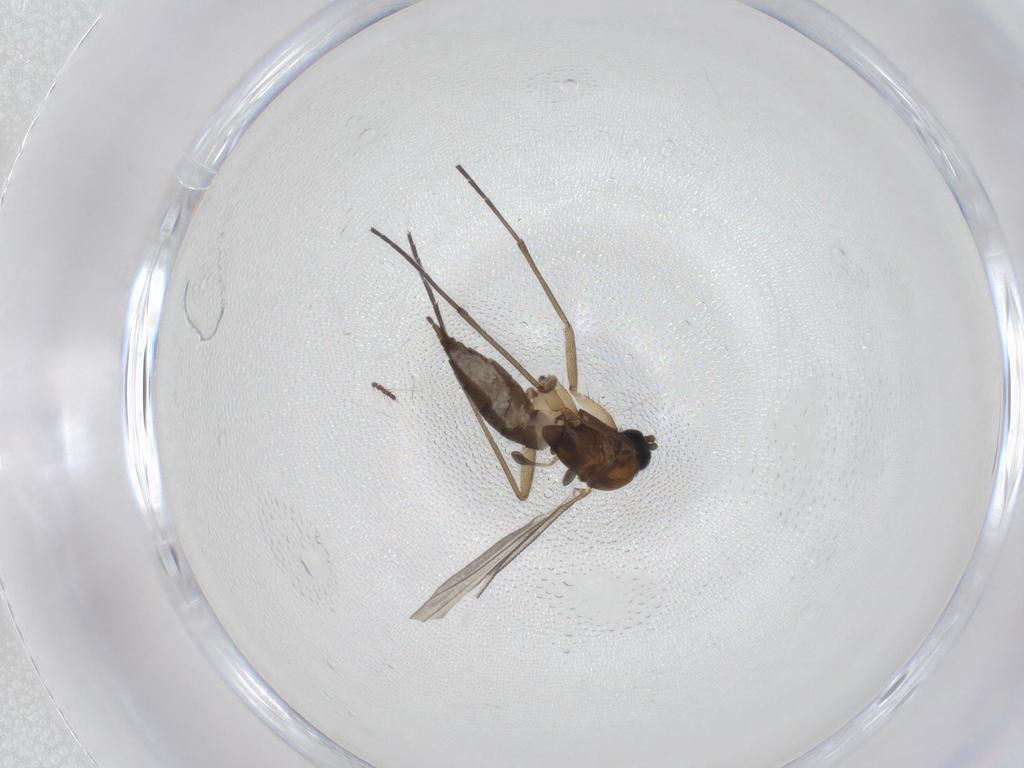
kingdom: Animalia
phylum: Arthropoda
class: Insecta
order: Diptera
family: Sciaridae
